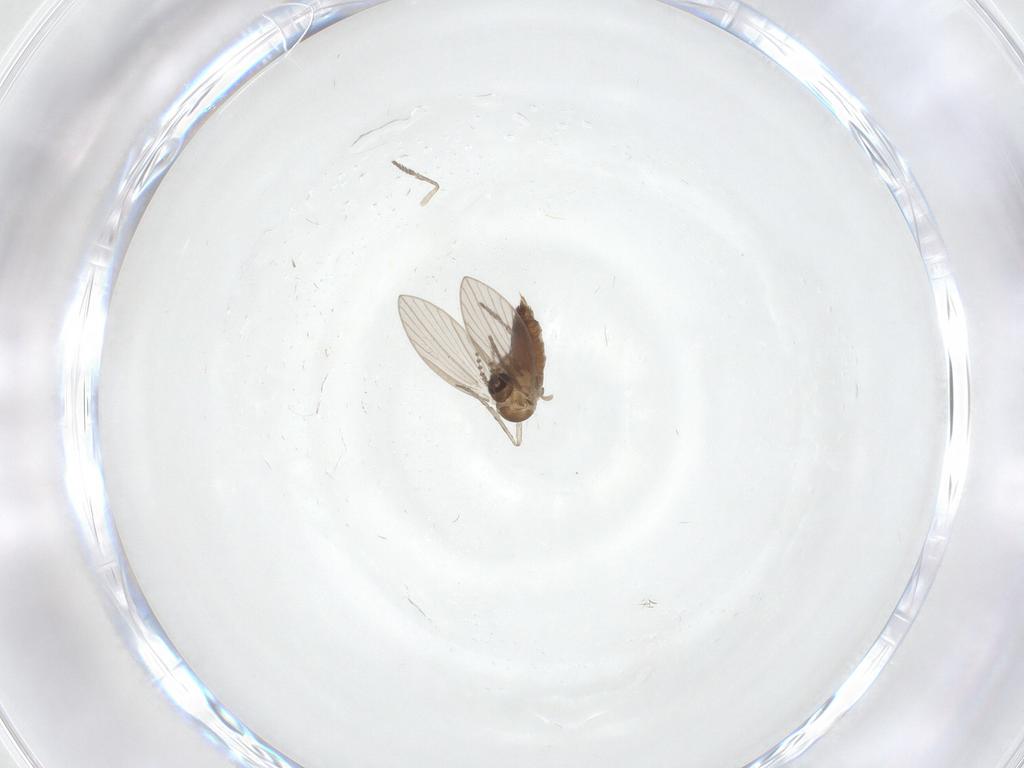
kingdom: Animalia
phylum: Arthropoda
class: Insecta
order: Diptera
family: Psychodidae
